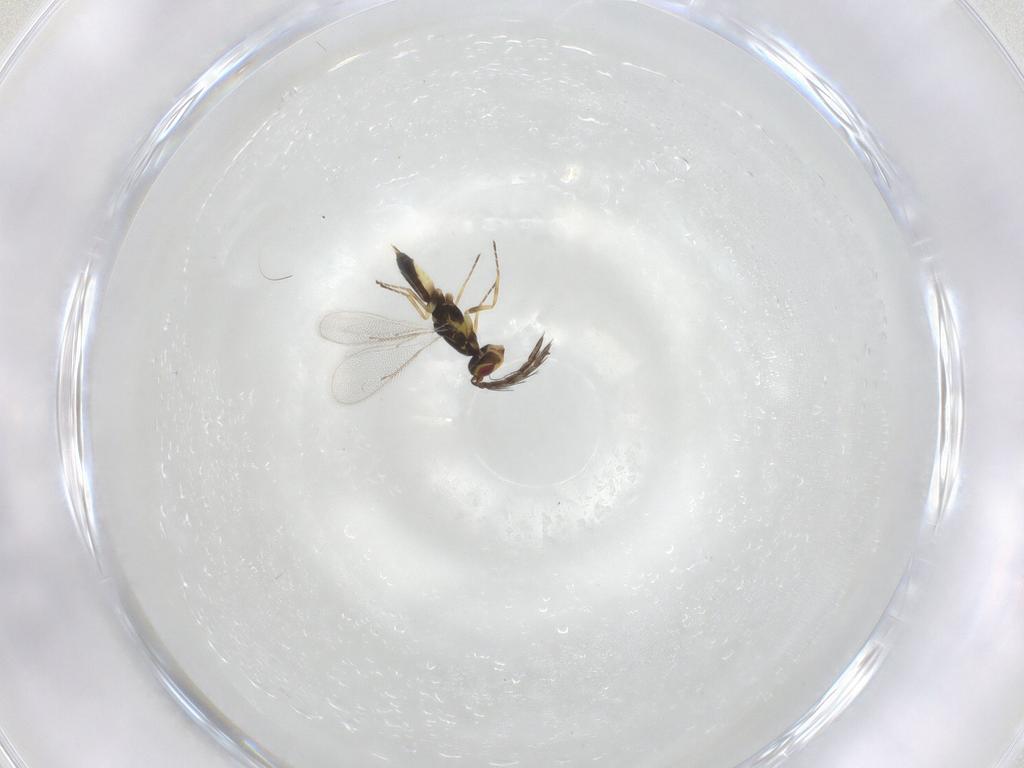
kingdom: Animalia
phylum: Arthropoda
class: Insecta
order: Hymenoptera
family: Eulophidae
